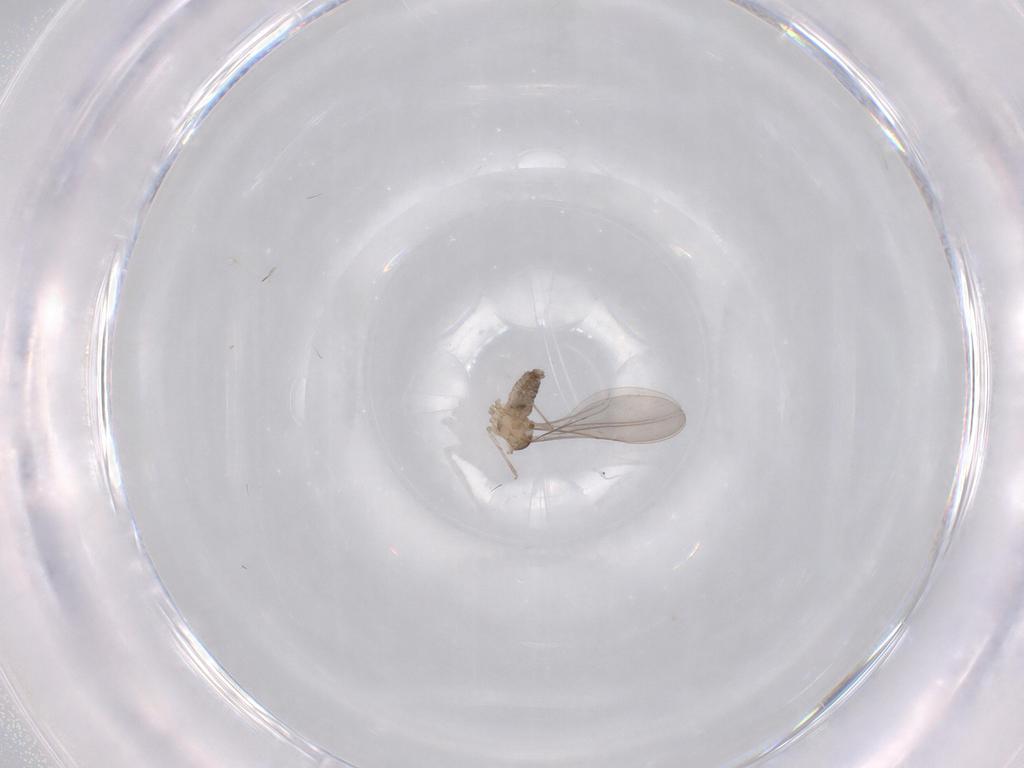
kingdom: Animalia
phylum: Arthropoda
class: Insecta
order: Diptera
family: Cecidomyiidae
